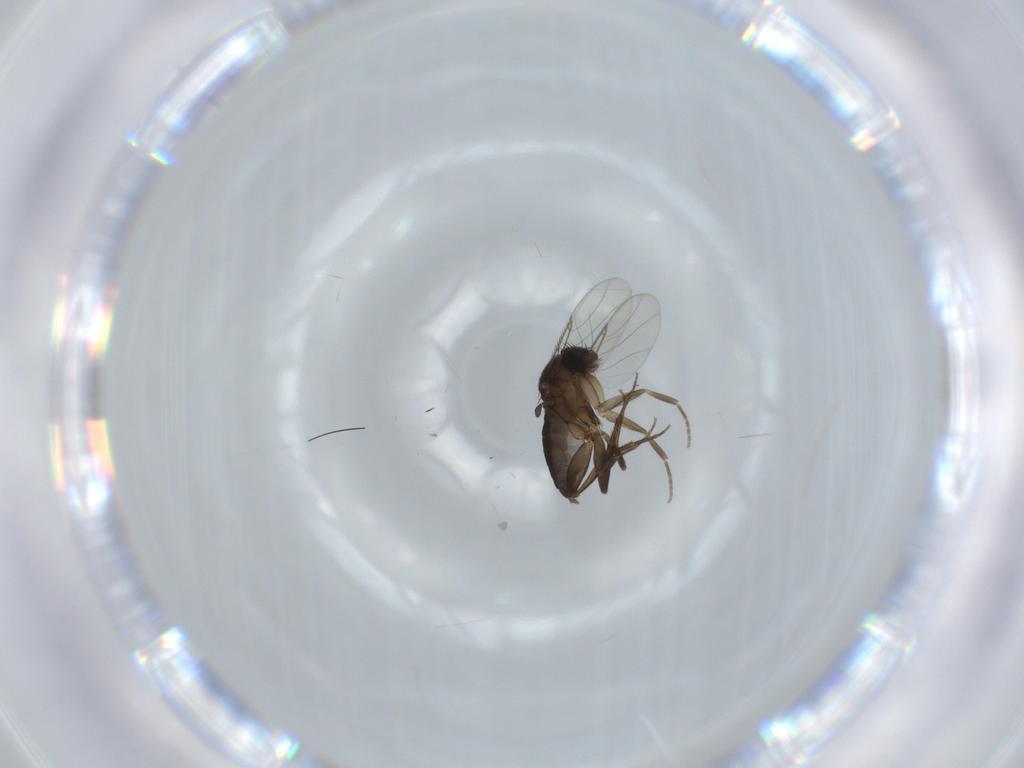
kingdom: Animalia
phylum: Arthropoda
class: Insecta
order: Diptera
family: Phoridae
